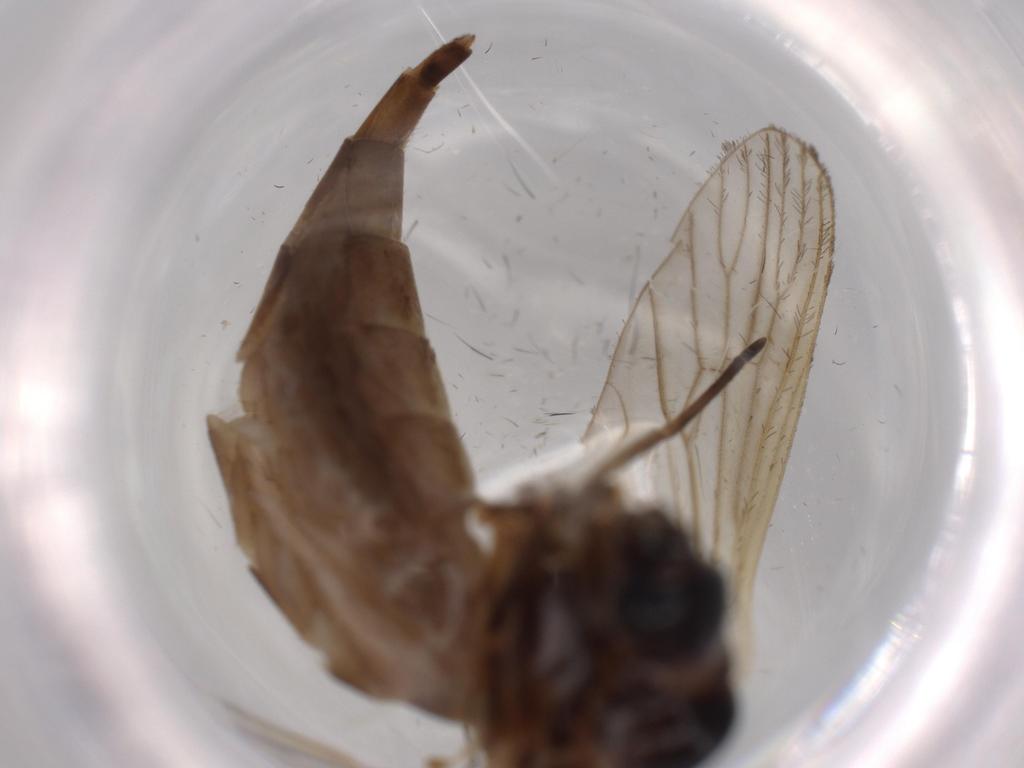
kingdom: Animalia
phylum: Arthropoda
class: Insecta
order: Diptera
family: Culicidae
